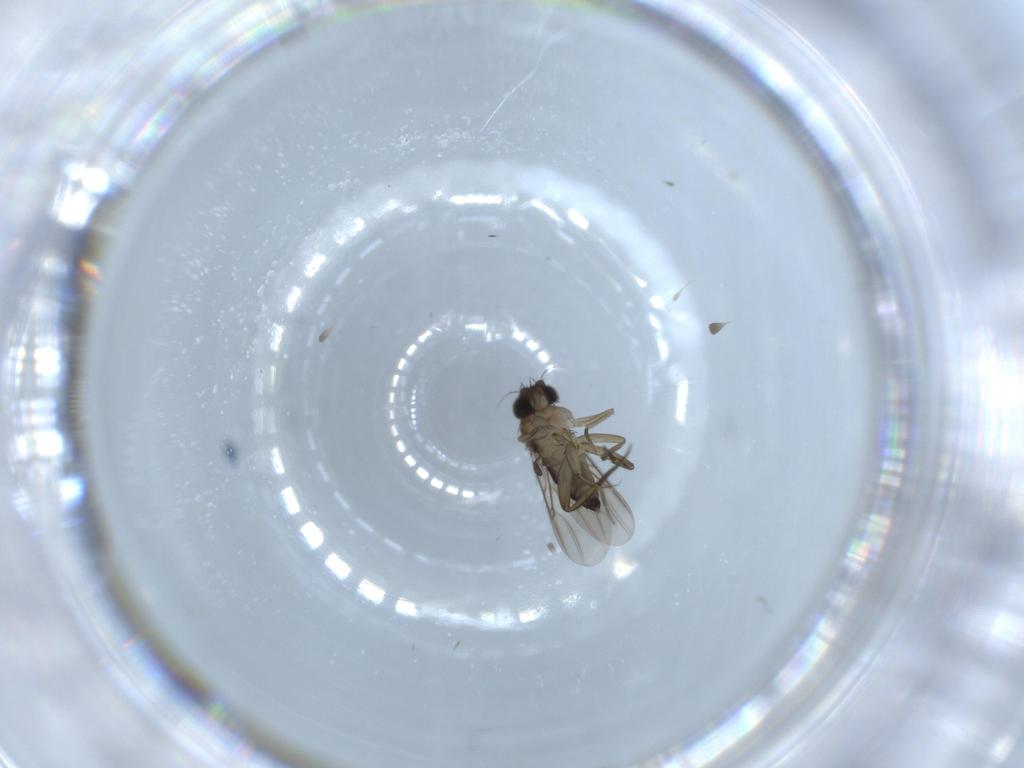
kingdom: Animalia
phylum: Arthropoda
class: Insecta
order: Diptera
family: Phoridae
